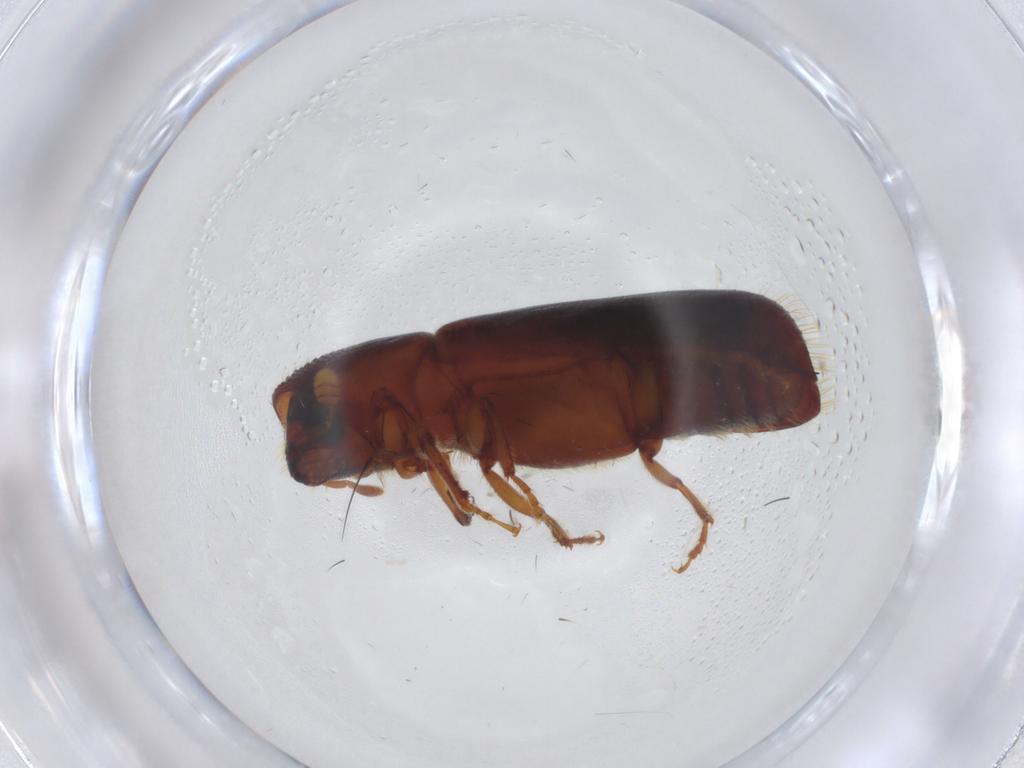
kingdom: Animalia
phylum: Arthropoda
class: Insecta
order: Coleoptera
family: Curculionidae
